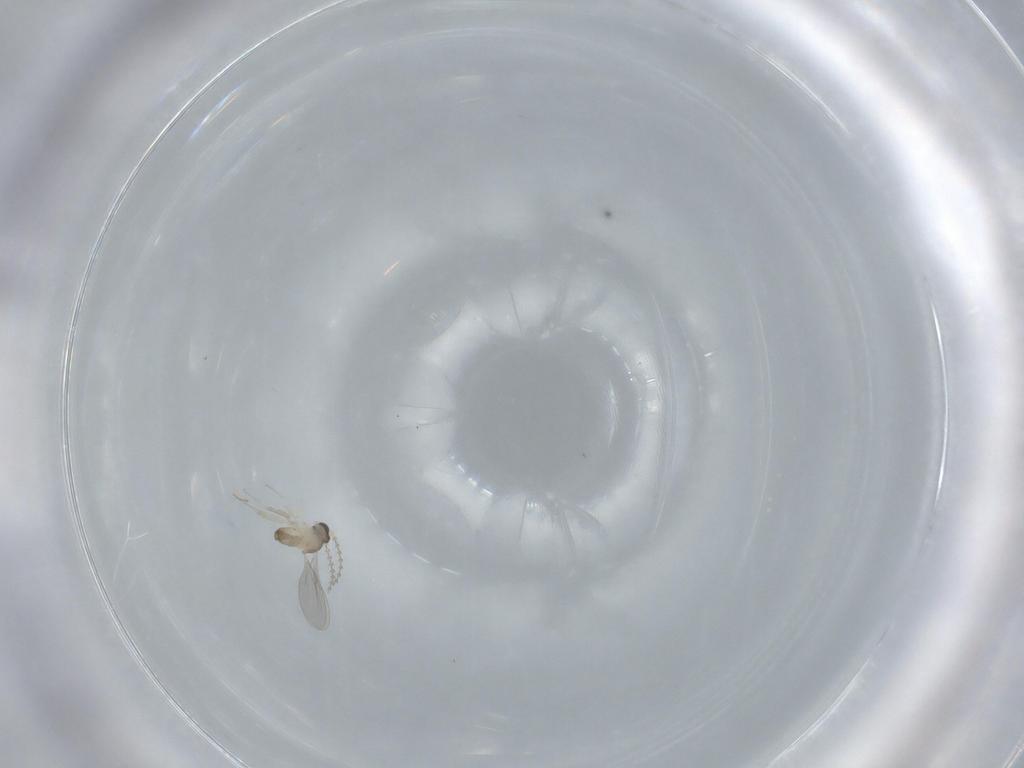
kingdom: Animalia
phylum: Arthropoda
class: Insecta
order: Diptera
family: Cecidomyiidae
